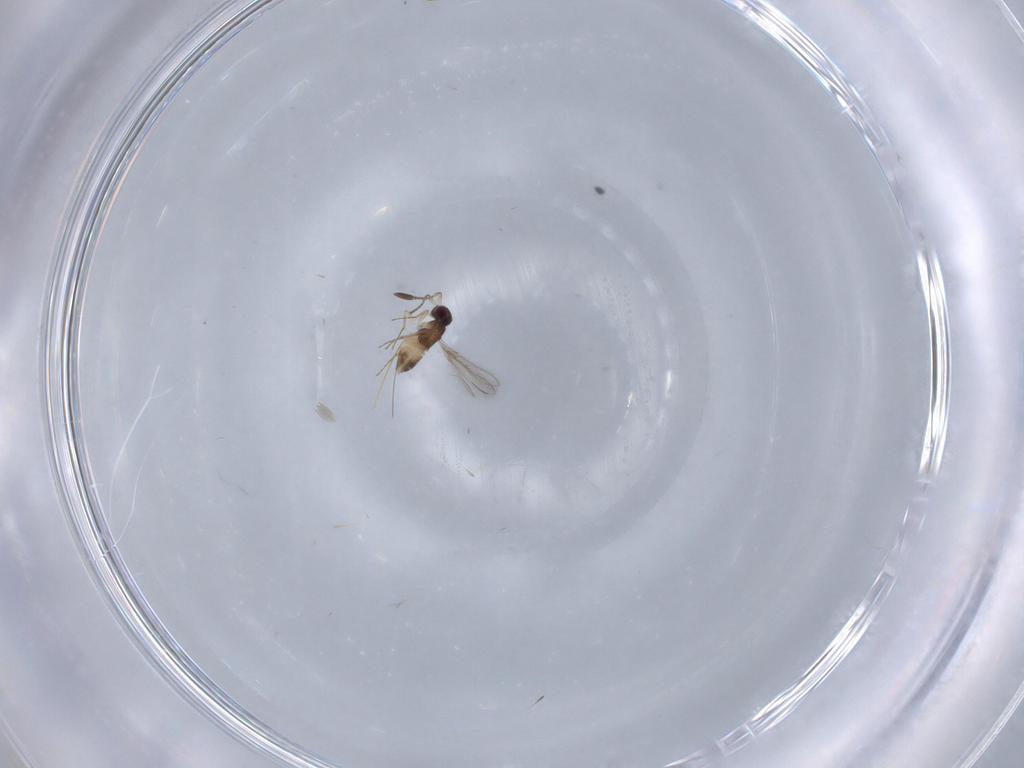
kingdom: Animalia
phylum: Arthropoda
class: Insecta
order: Hymenoptera
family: Mymaridae
